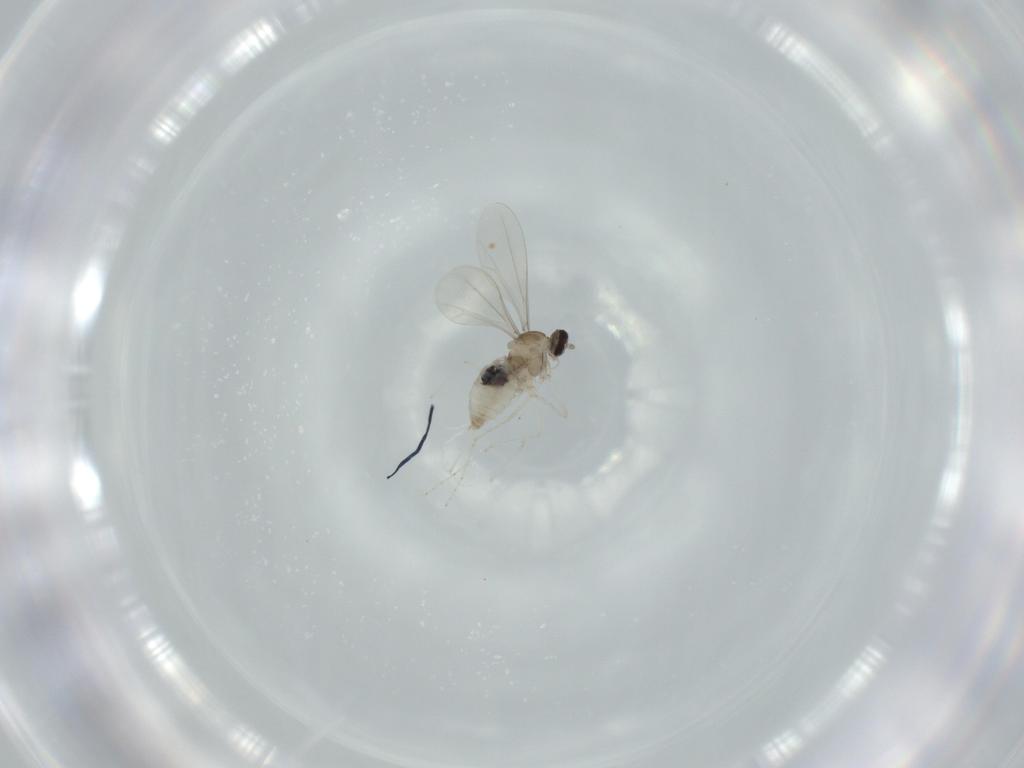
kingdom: Animalia
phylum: Arthropoda
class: Insecta
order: Diptera
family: Cecidomyiidae
